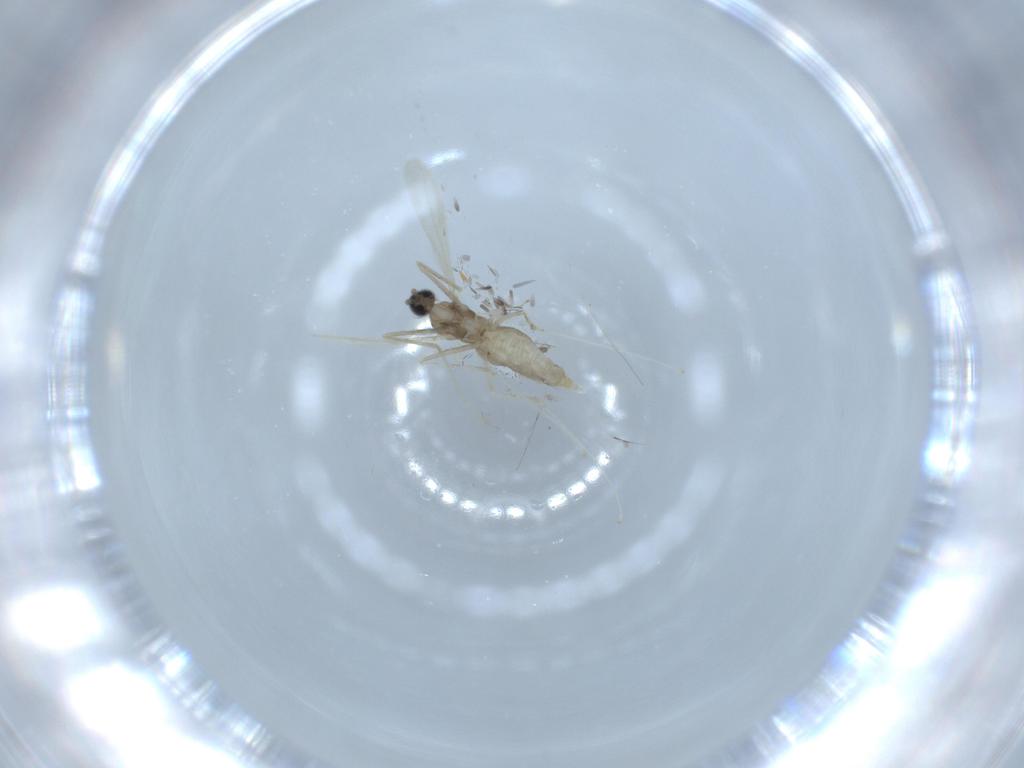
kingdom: Animalia
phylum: Arthropoda
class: Insecta
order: Diptera
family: Cecidomyiidae
